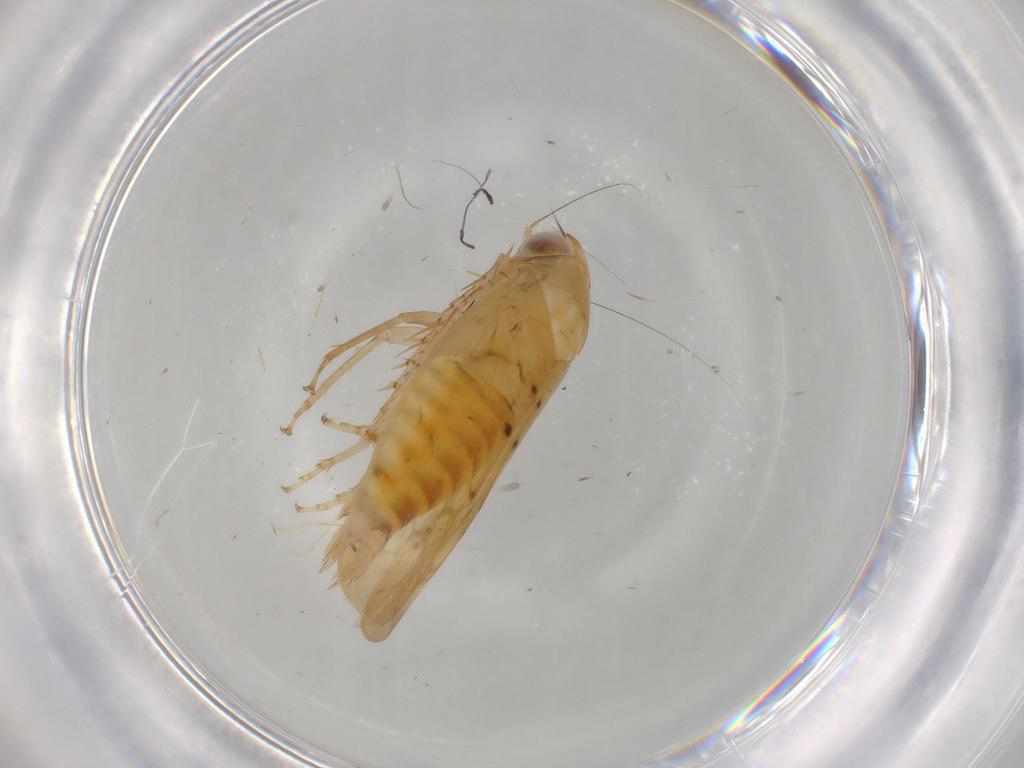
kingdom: Animalia
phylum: Arthropoda
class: Insecta
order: Hemiptera
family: Cicadellidae
